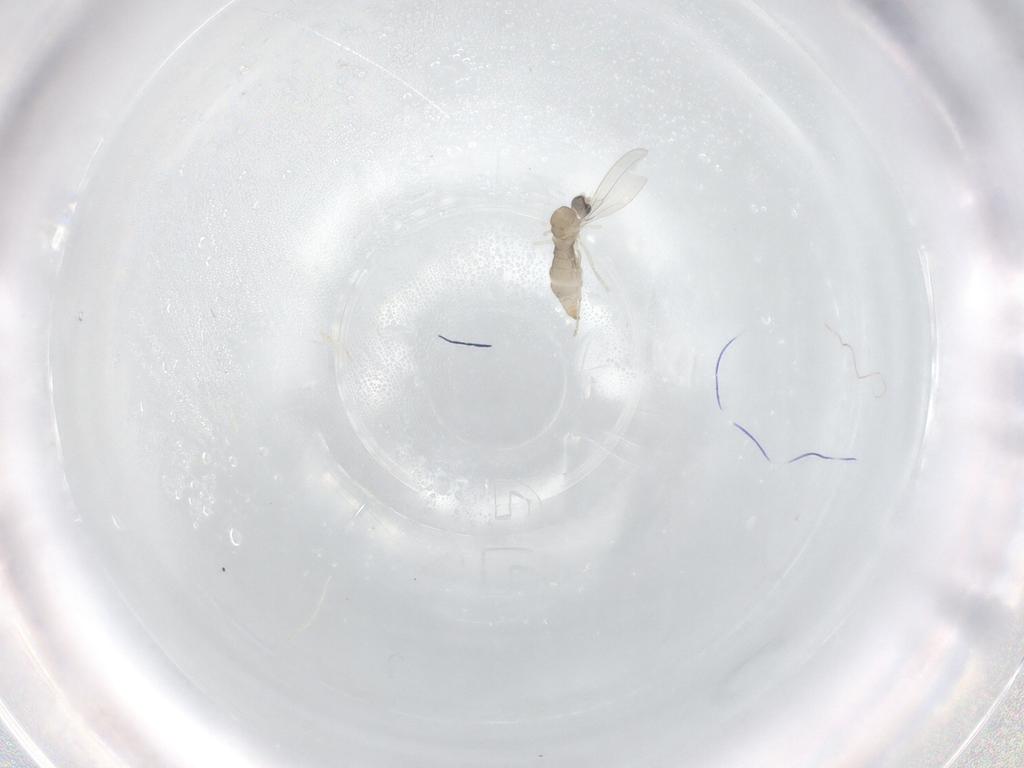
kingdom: Animalia
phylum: Arthropoda
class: Insecta
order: Diptera
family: Cecidomyiidae
